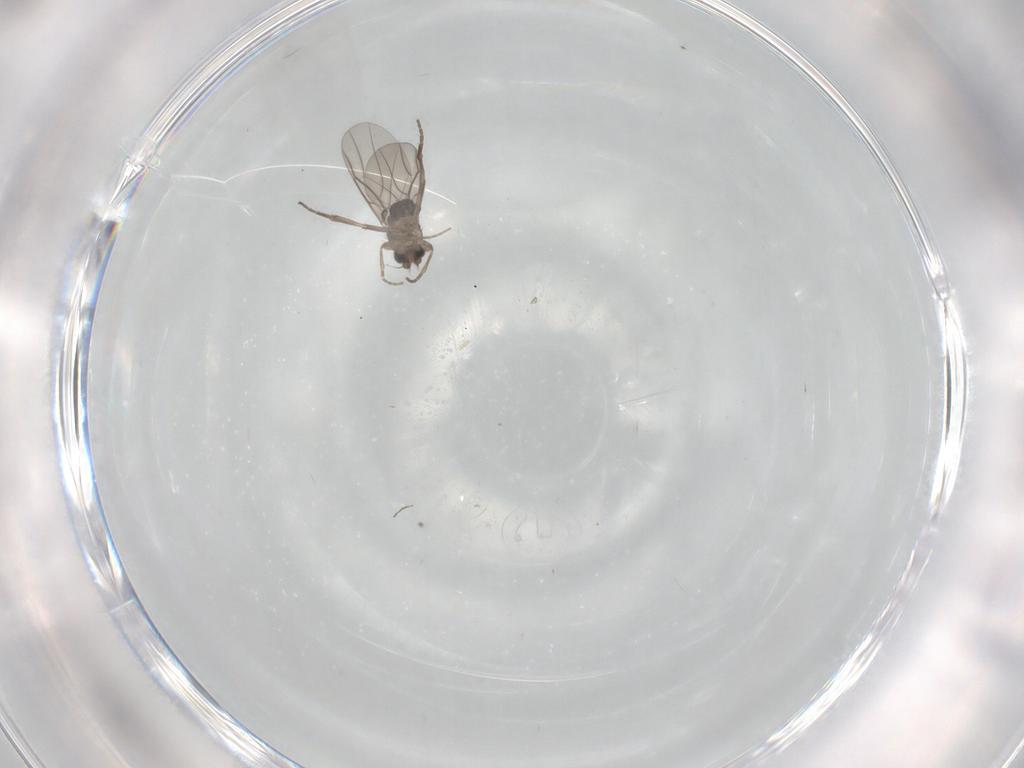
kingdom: Animalia
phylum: Arthropoda
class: Insecta
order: Diptera
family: Phoridae
